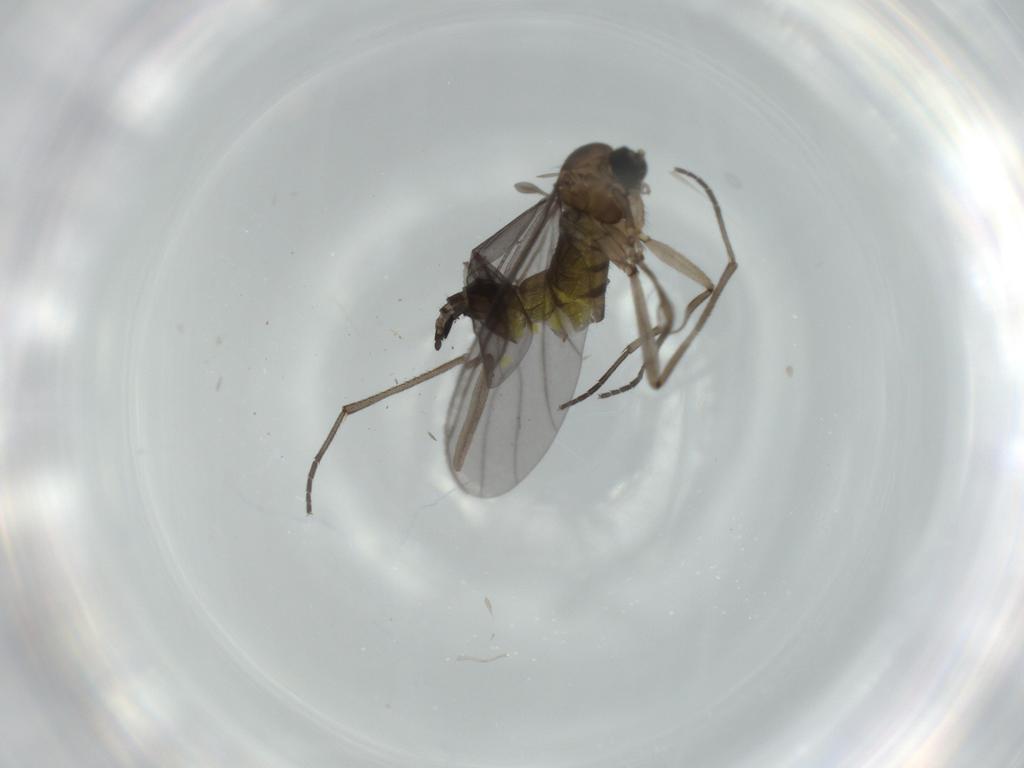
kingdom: Animalia
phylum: Arthropoda
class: Insecta
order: Diptera
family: Sciaridae
